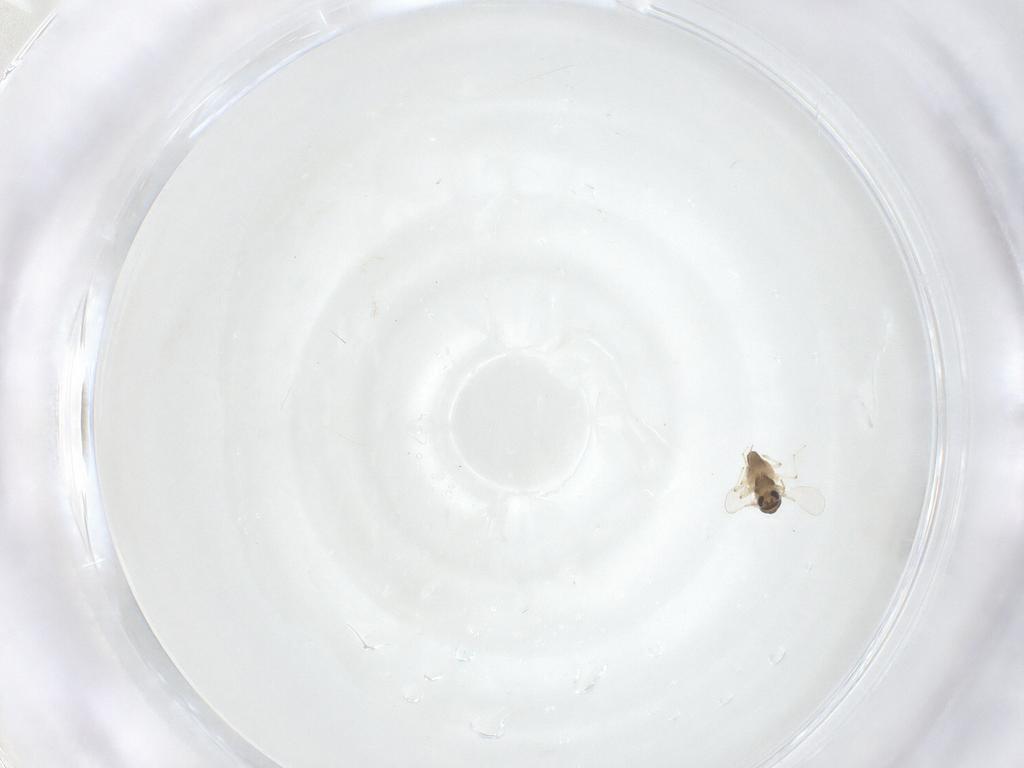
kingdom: Animalia
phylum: Arthropoda
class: Insecta
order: Diptera
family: Chironomidae
